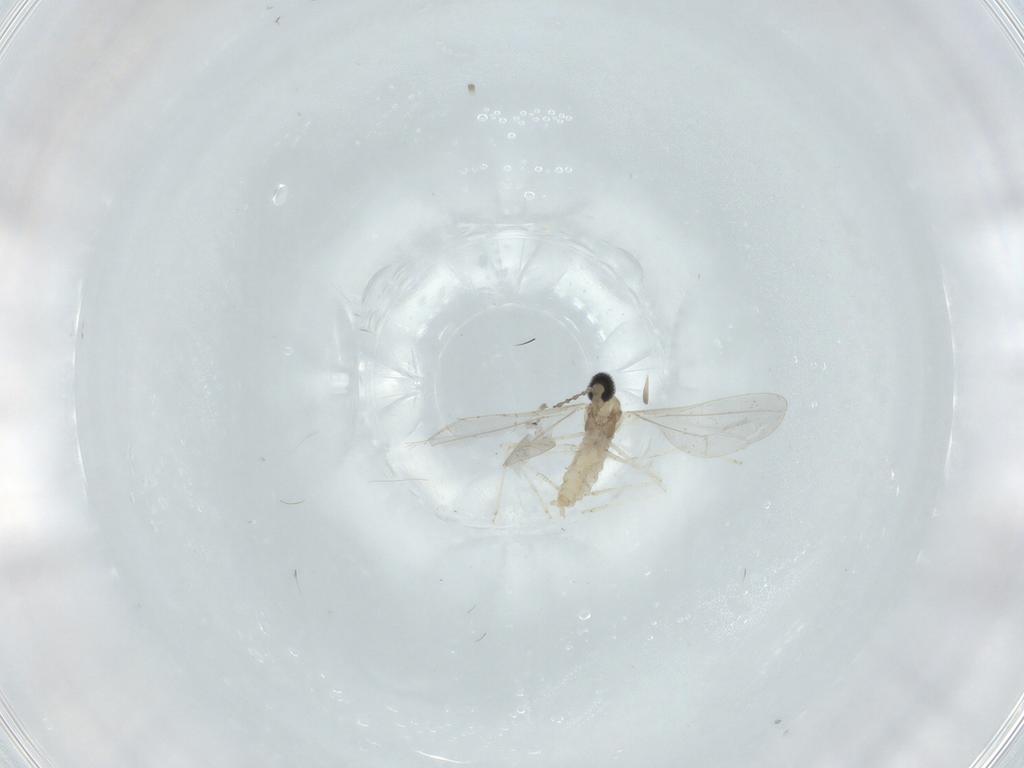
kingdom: Animalia
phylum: Arthropoda
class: Insecta
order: Diptera
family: Cecidomyiidae
